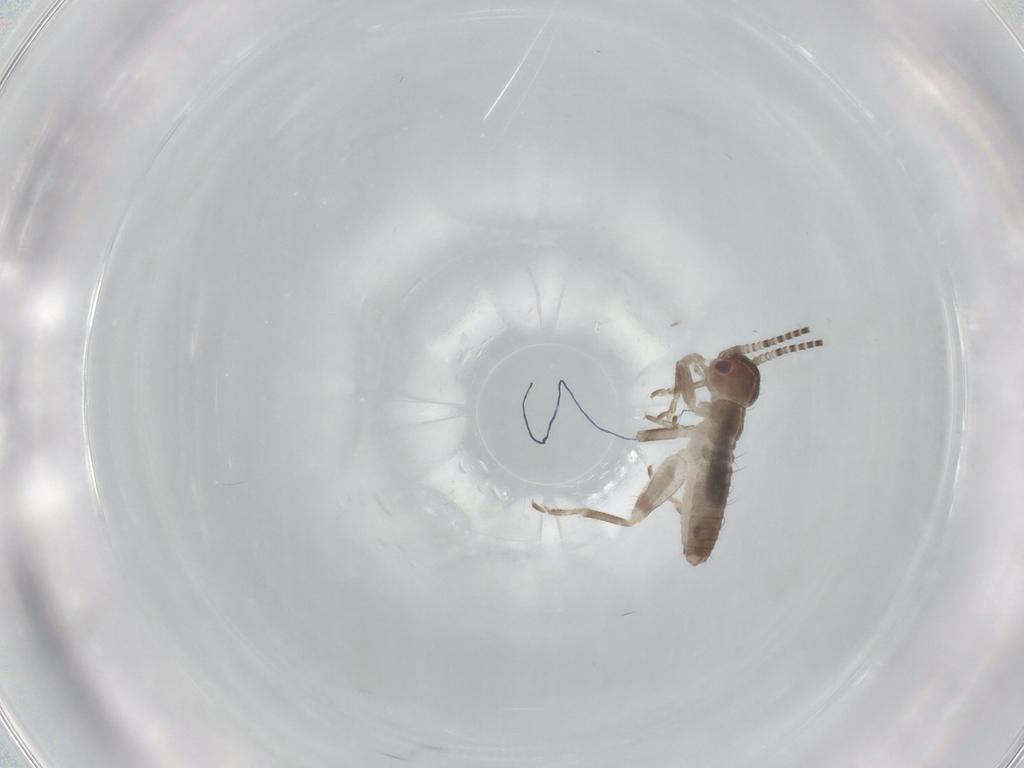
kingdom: Animalia
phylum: Arthropoda
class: Insecta
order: Orthoptera
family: Mogoplistidae
